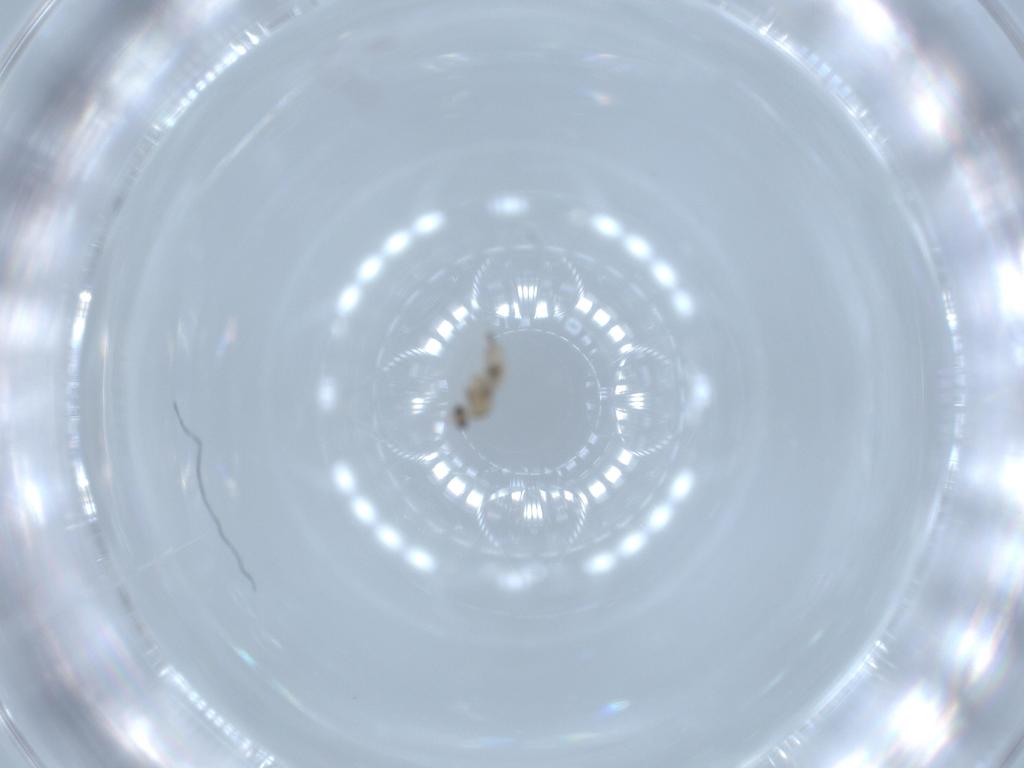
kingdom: Animalia
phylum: Arthropoda
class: Insecta
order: Diptera
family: Cecidomyiidae
